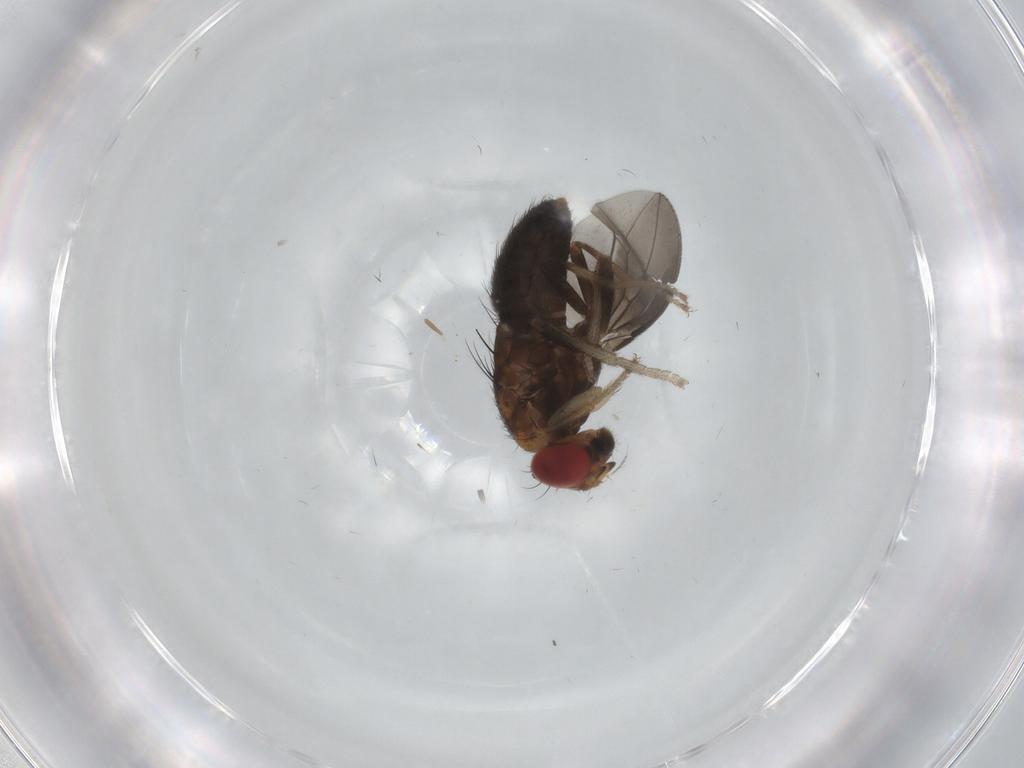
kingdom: Animalia
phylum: Arthropoda
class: Insecta
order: Diptera
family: Drosophilidae
